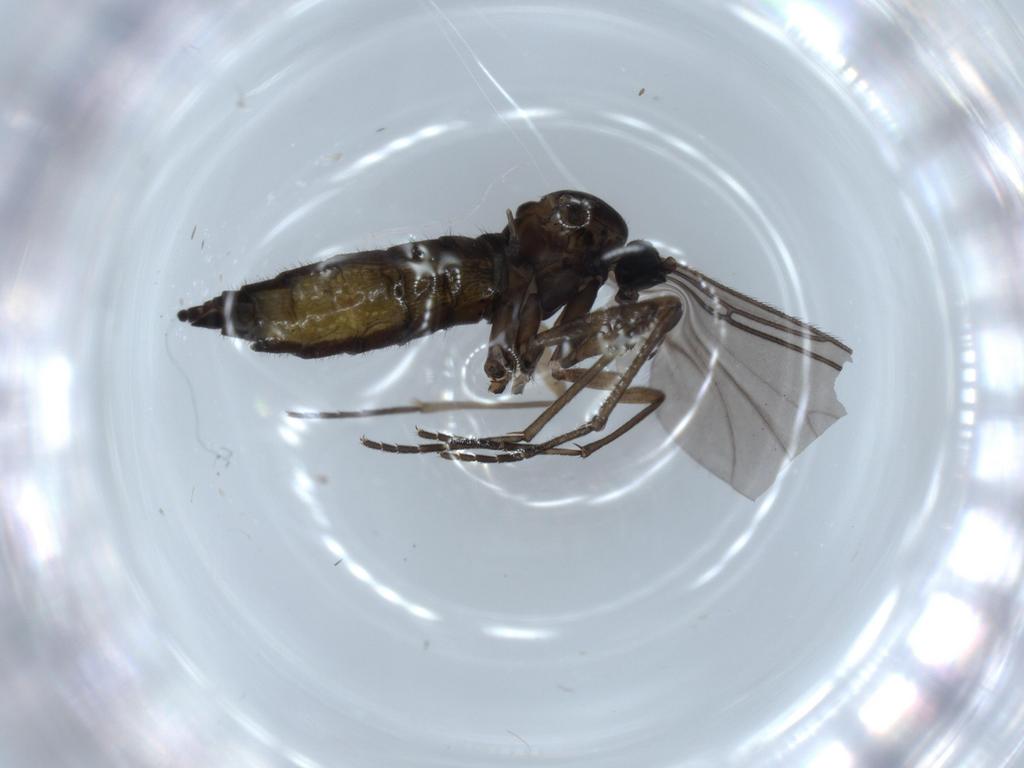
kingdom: Animalia
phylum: Arthropoda
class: Insecta
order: Diptera
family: Sciaridae
